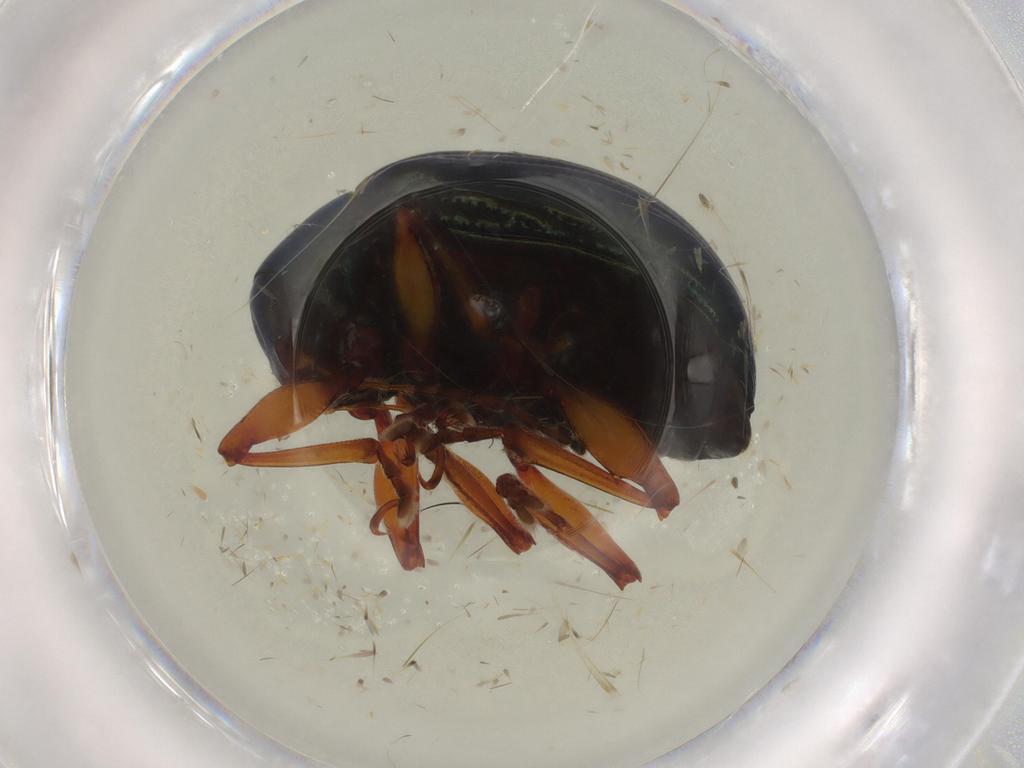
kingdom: Animalia
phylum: Arthropoda
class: Insecta
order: Coleoptera
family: Chrysomelidae
